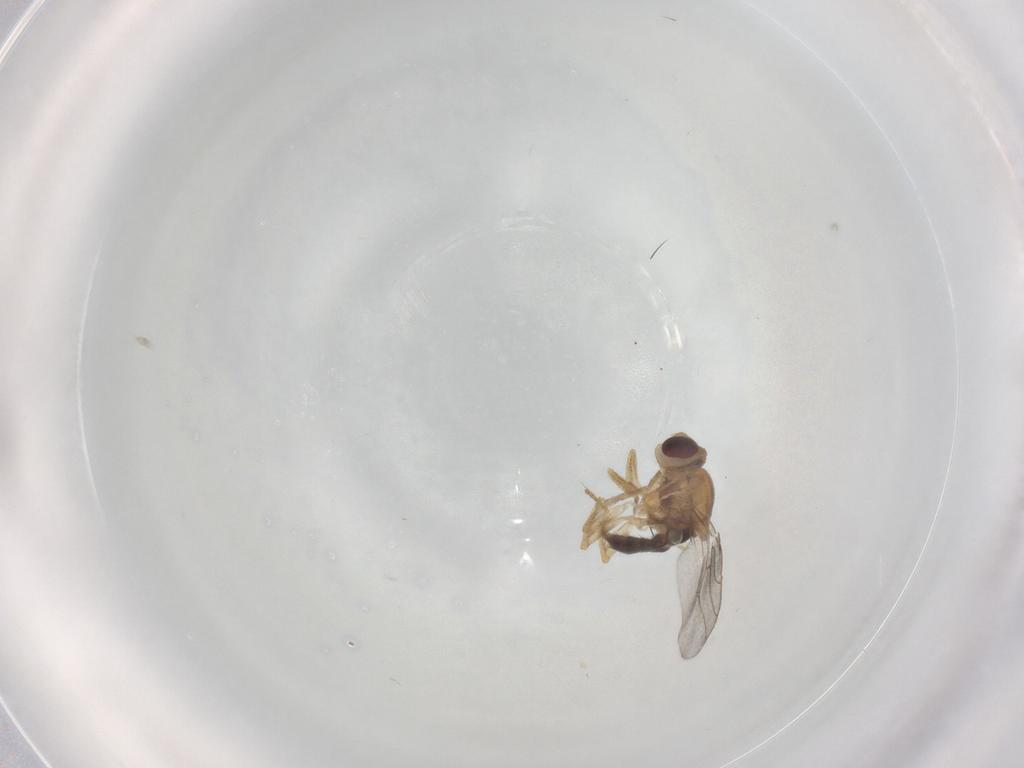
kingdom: Animalia
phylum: Arthropoda
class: Insecta
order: Diptera
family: Chloropidae
